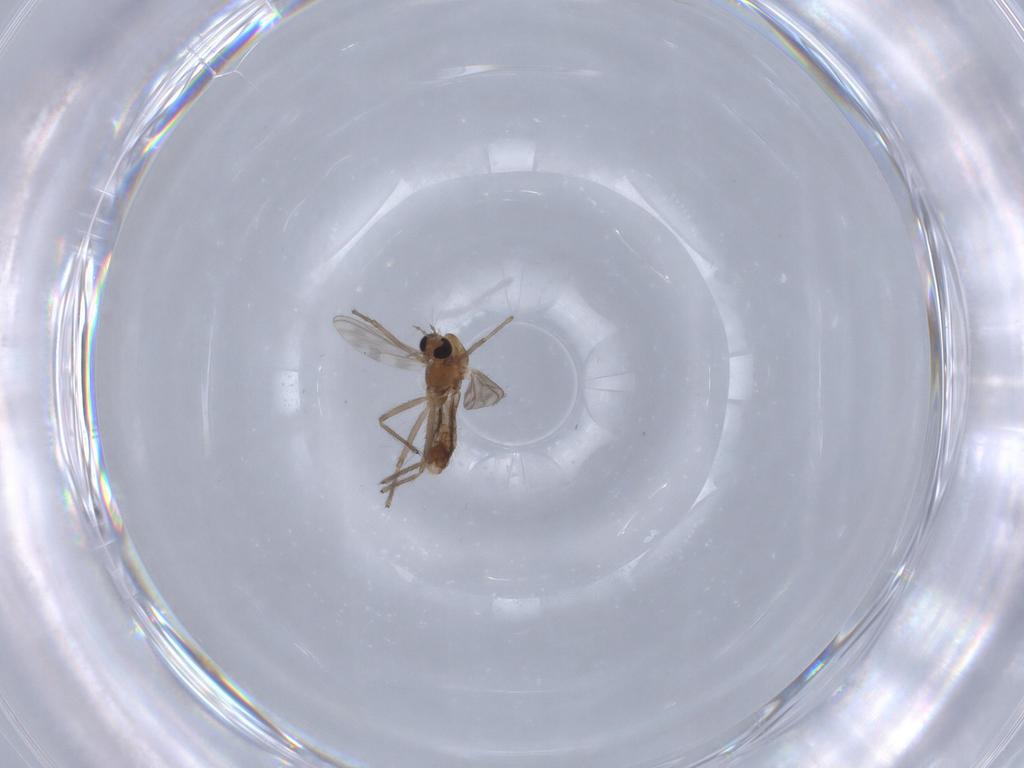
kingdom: Animalia
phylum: Arthropoda
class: Insecta
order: Diptera
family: Chironomidae
